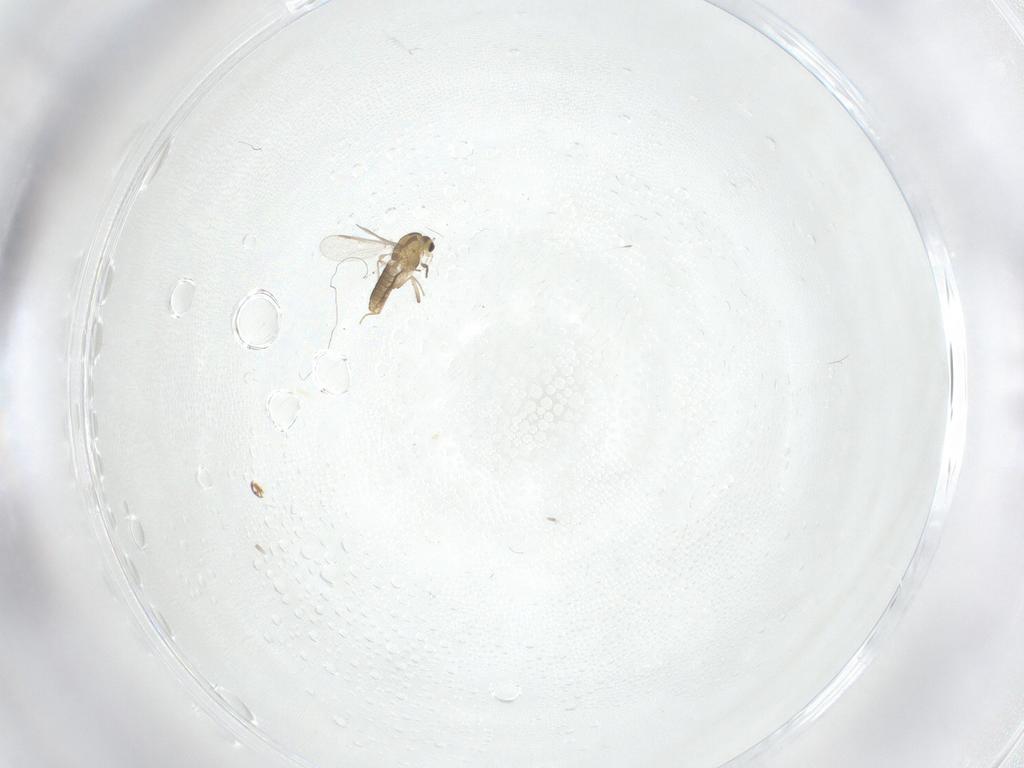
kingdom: Animalia
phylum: Arthropoda
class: Insecta
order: Diptera
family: Chironomidae
